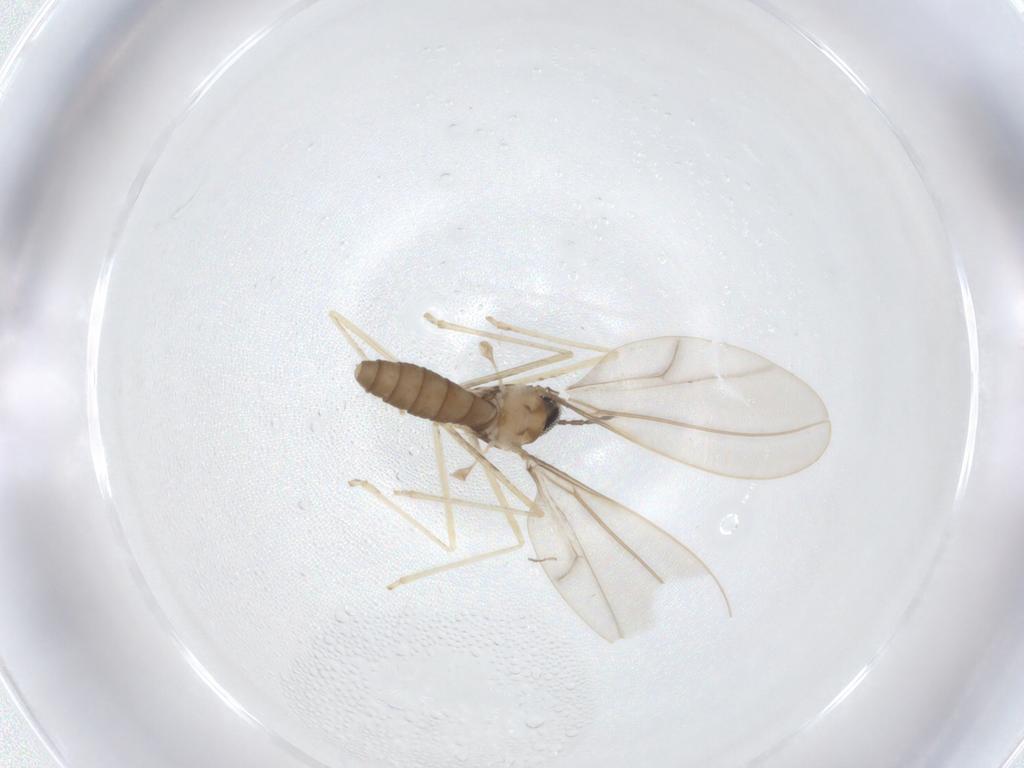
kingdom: Animalia
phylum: Arthropoda
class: Insecta
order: Diptera
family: Cecidomyiidae
